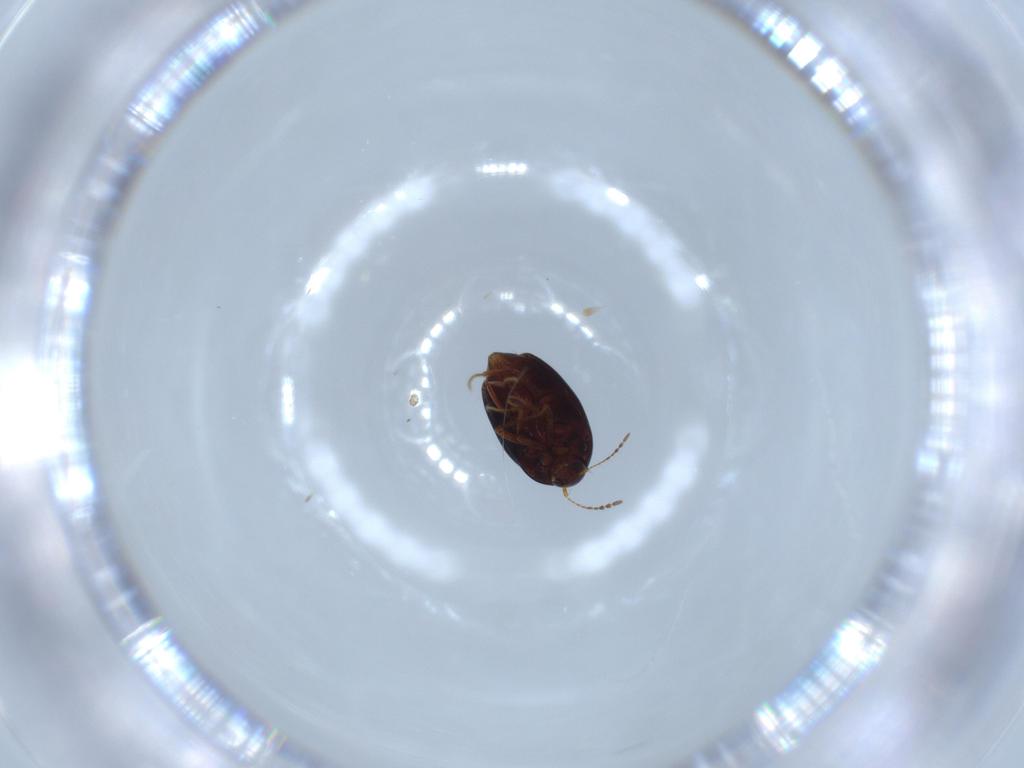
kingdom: Animalia
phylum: Arthropoda
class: Insecta
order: Coleoptera
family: Staphylinidae
